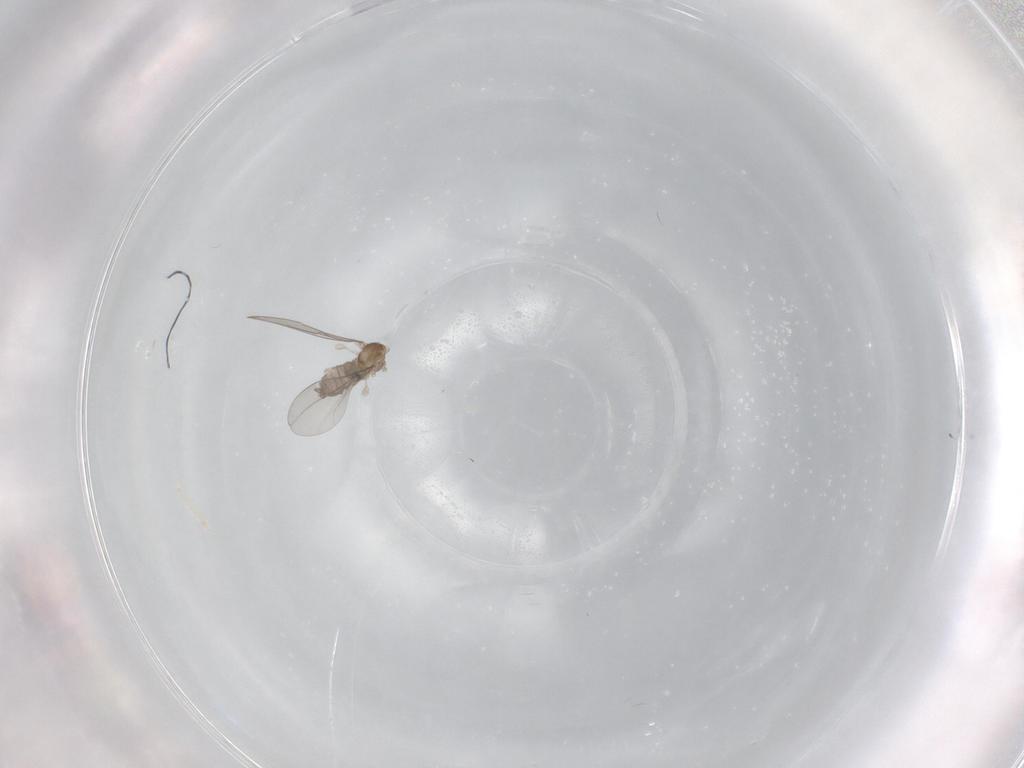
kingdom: Animalia
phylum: Arthropoda
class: Insecta
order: Diptera
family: Cecidomyiidae
